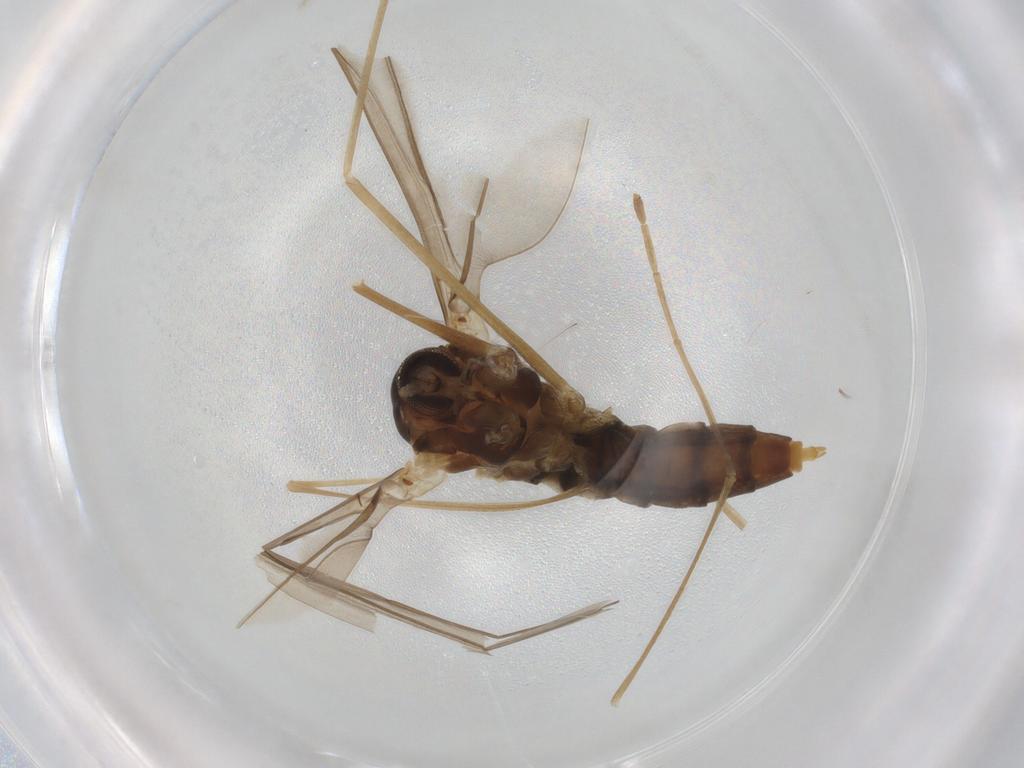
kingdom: Animalia
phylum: Arthropoda
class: Insecta
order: Diptera
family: Cecidomyiidae
